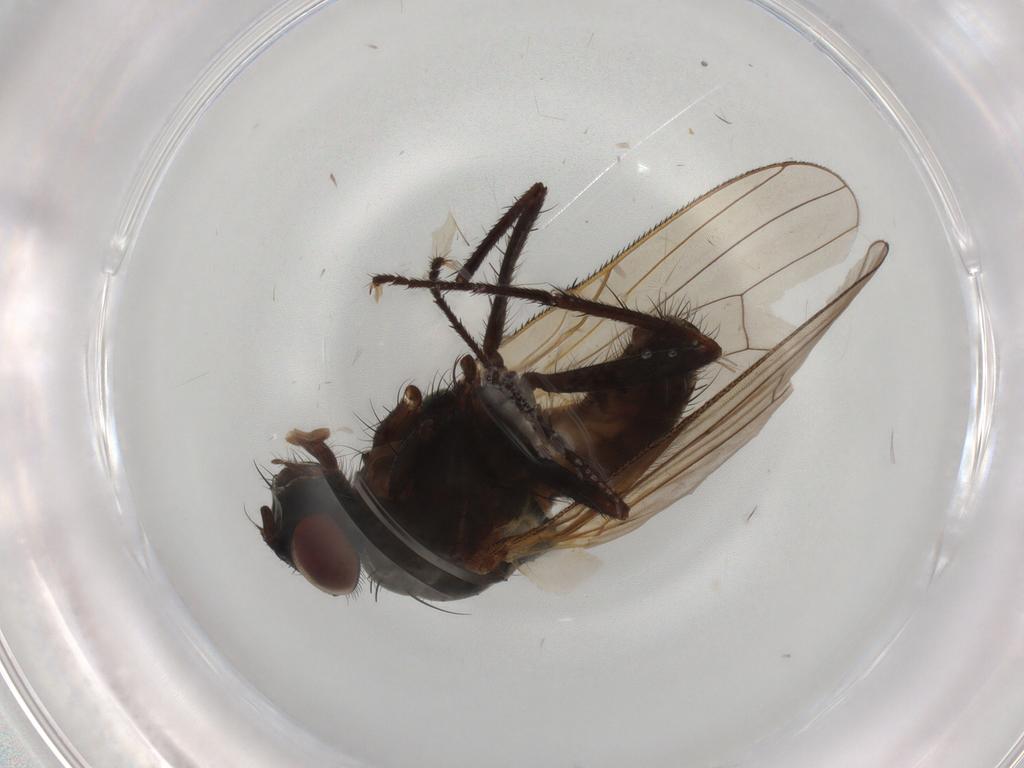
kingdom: Animalia
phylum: Arthropoda
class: Insecta
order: Diptera
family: Anthomyiidae
